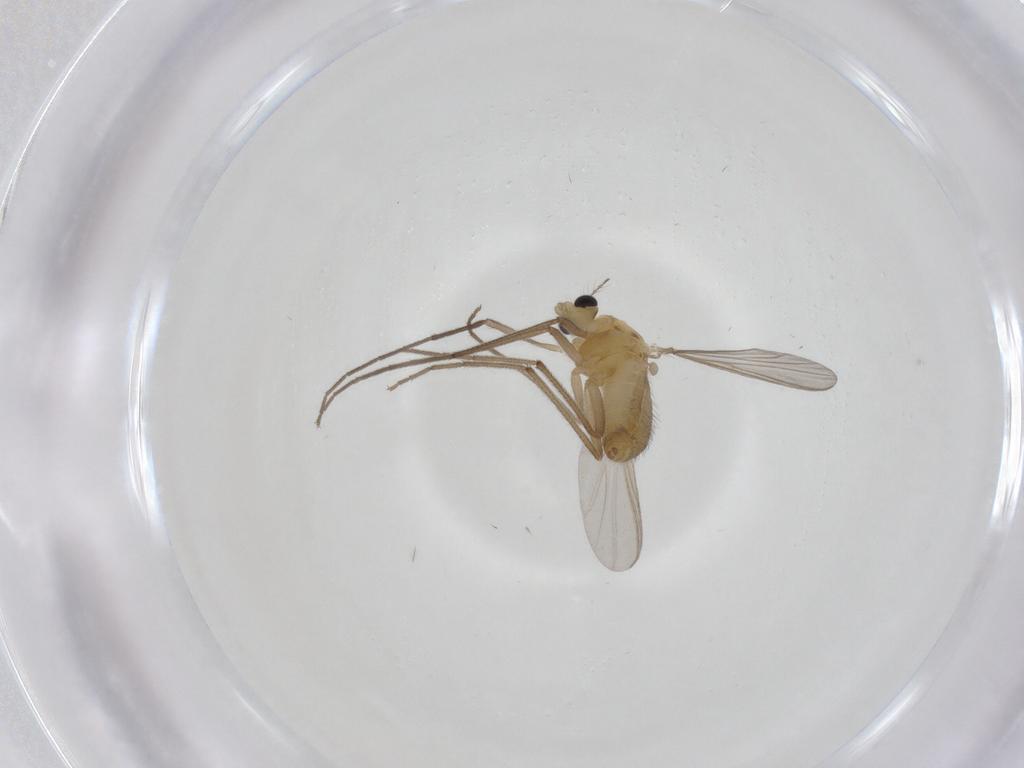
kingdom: Animalia
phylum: Arthropoda
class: Insecta
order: Diptera
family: Chironomidae
